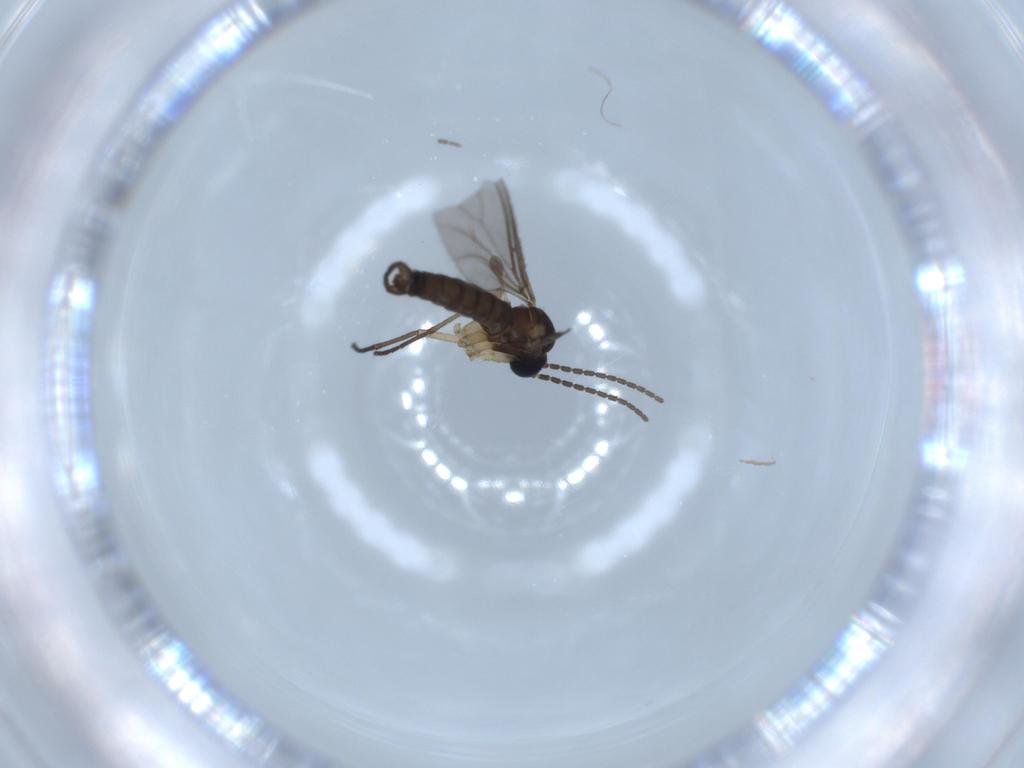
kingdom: Animalia
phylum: Arthropoda
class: Insecta
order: Diptera
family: Sciaridae
